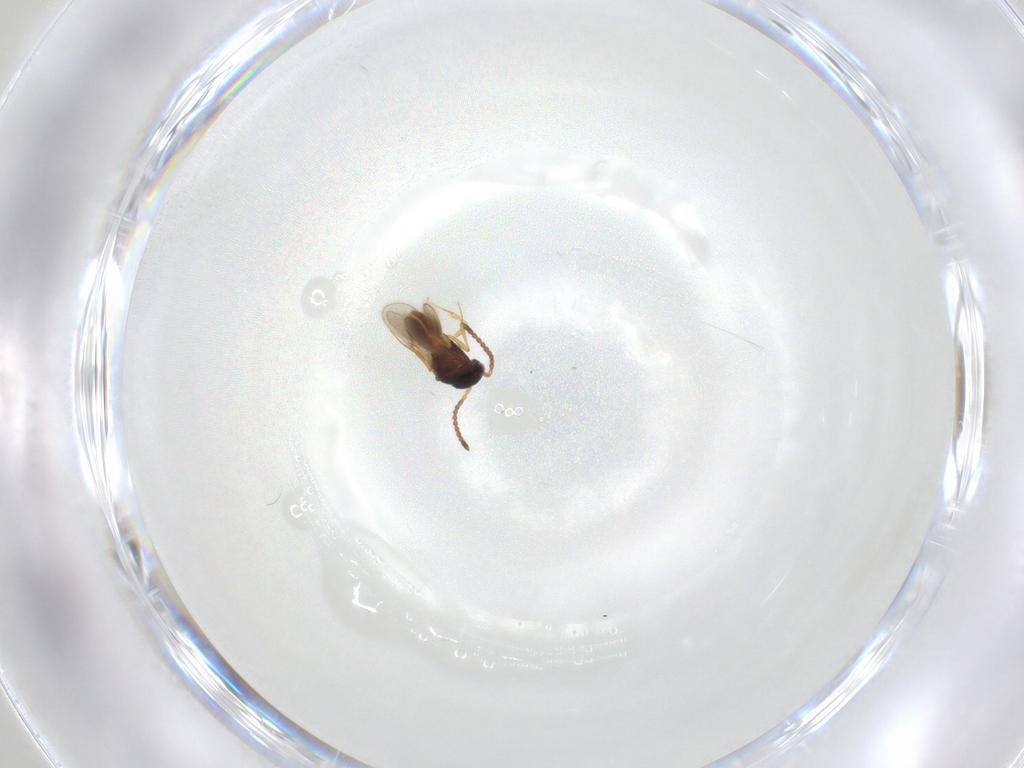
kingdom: Animalia
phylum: Arthropoda
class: Insecta
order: Hymenoptera
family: Scelionidae
